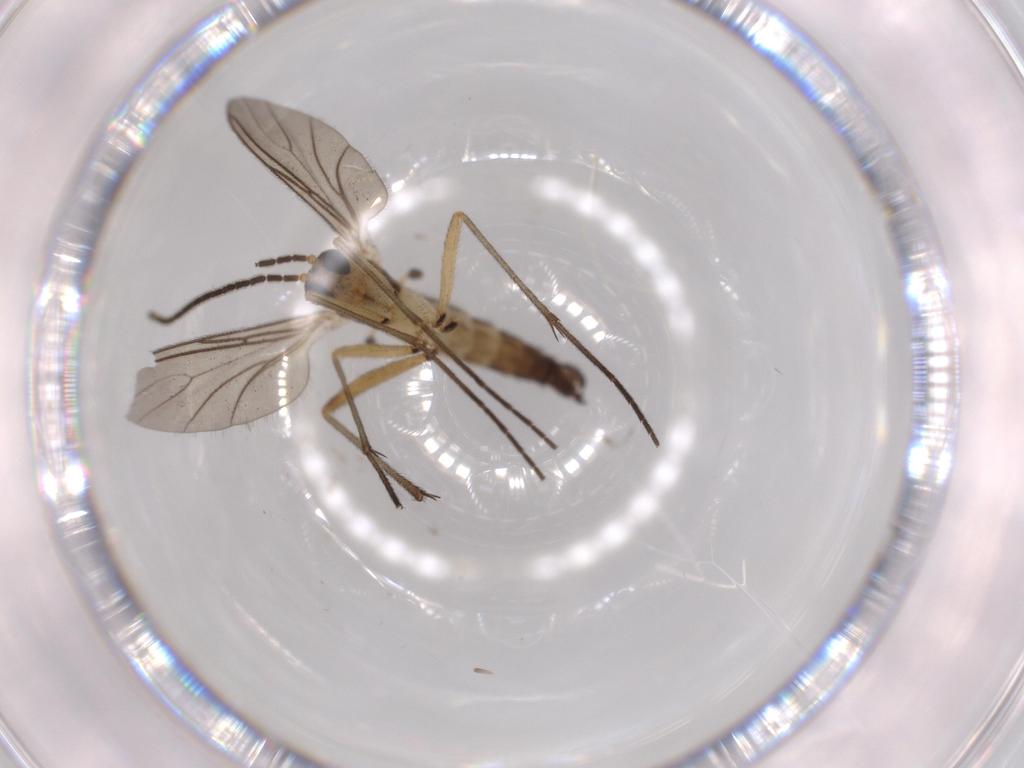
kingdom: Animalia
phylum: Arthropoda
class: Insecta
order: Diptera
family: Sciaridae
